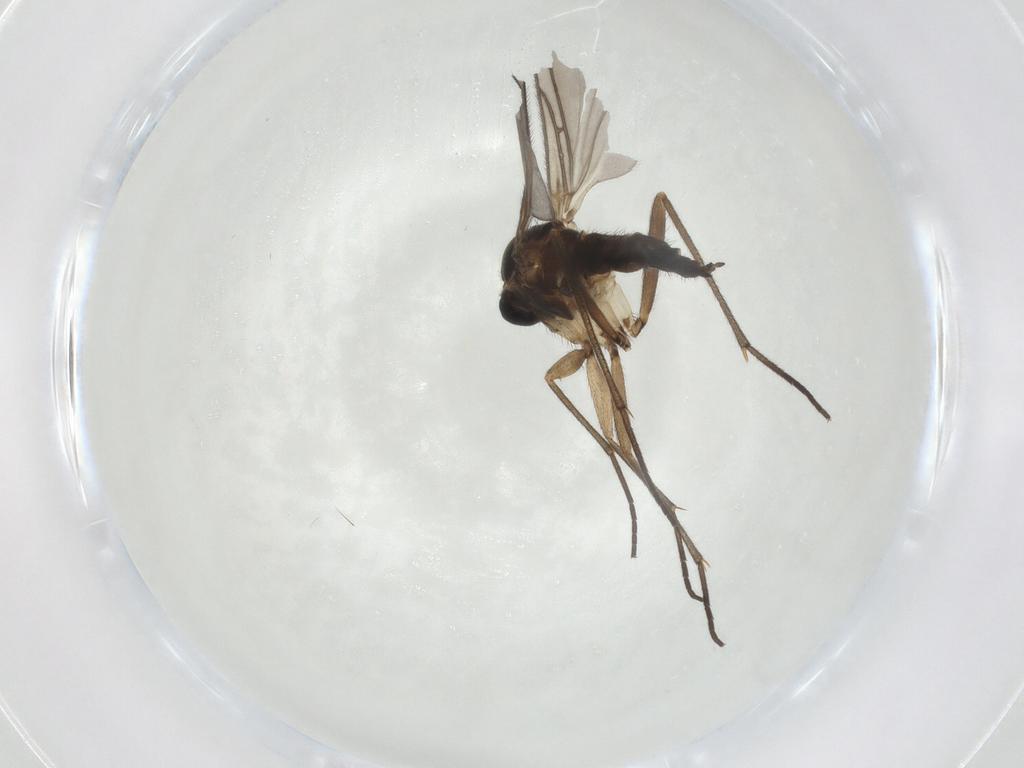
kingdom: Animalia
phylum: Arthropoda
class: Insecta
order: Diptera
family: Sciaridae
